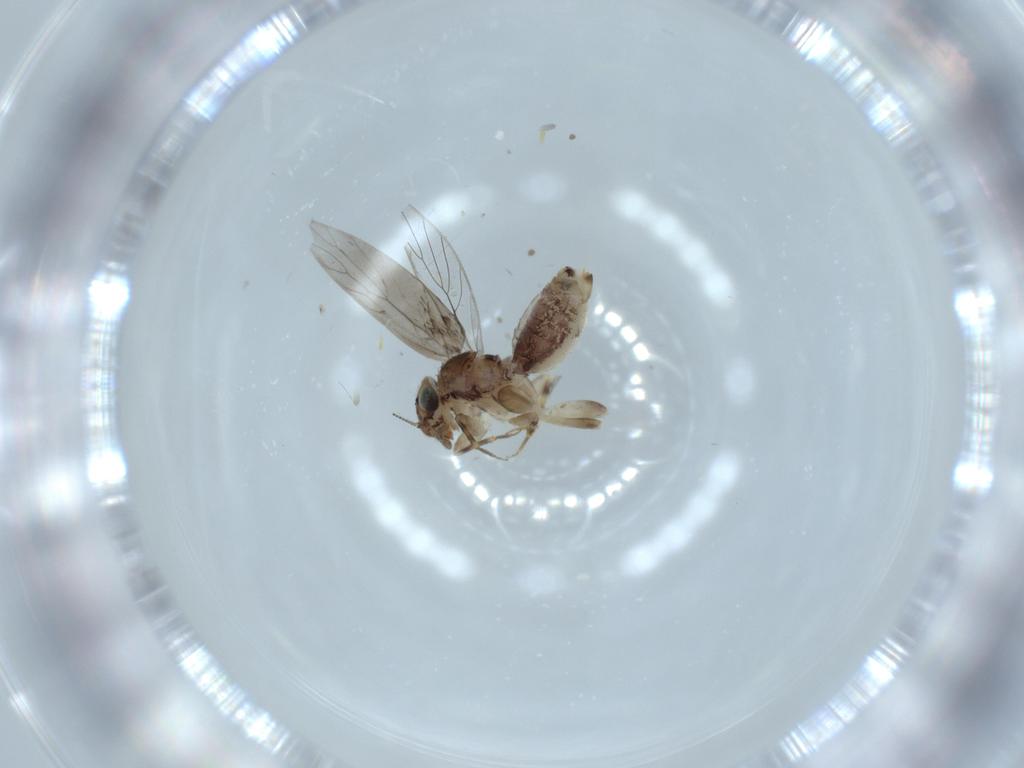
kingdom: Animalia
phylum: Arthropoda
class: Insecta
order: Psocodea
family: Lepidopsocidae
